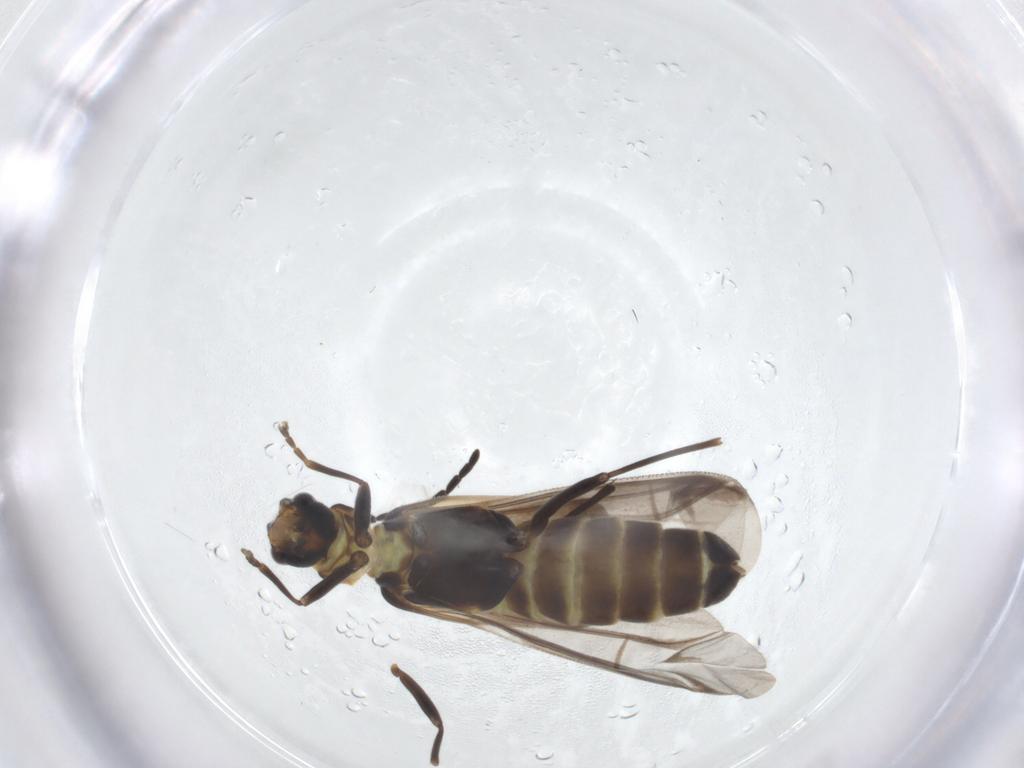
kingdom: Animalia
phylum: Arthropoda
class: Insecta
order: Coleoptera
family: Cantharidae
